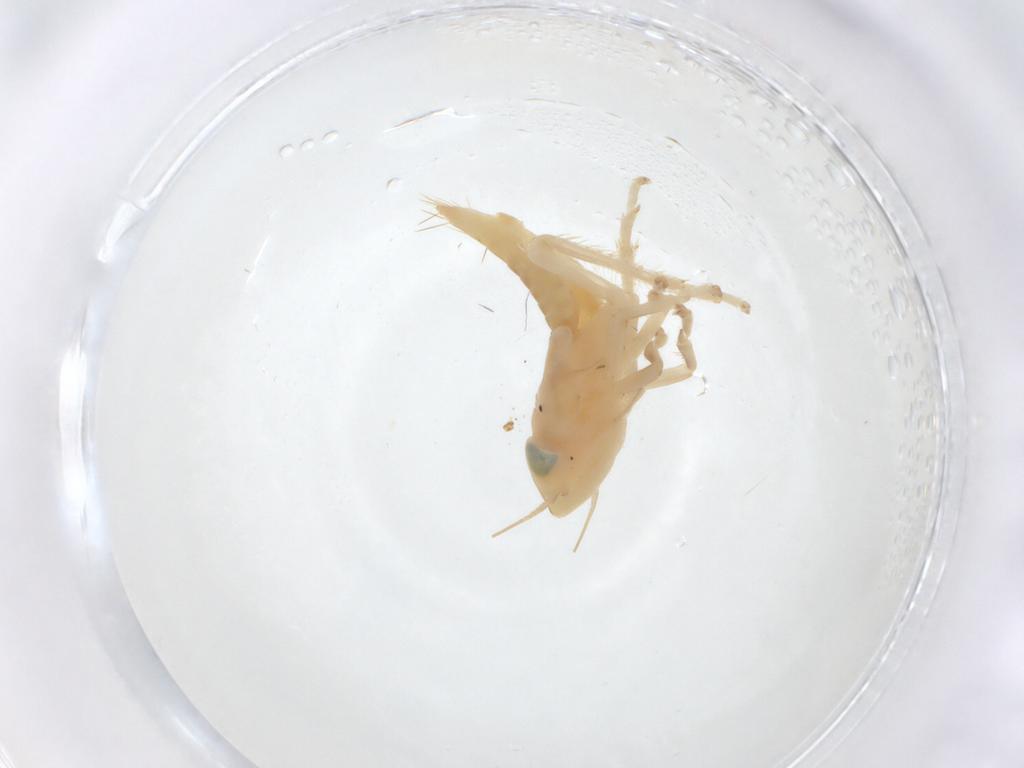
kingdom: Animalia
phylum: Arthropoda
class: Insecta
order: Hemiptera
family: Cicadellidae
